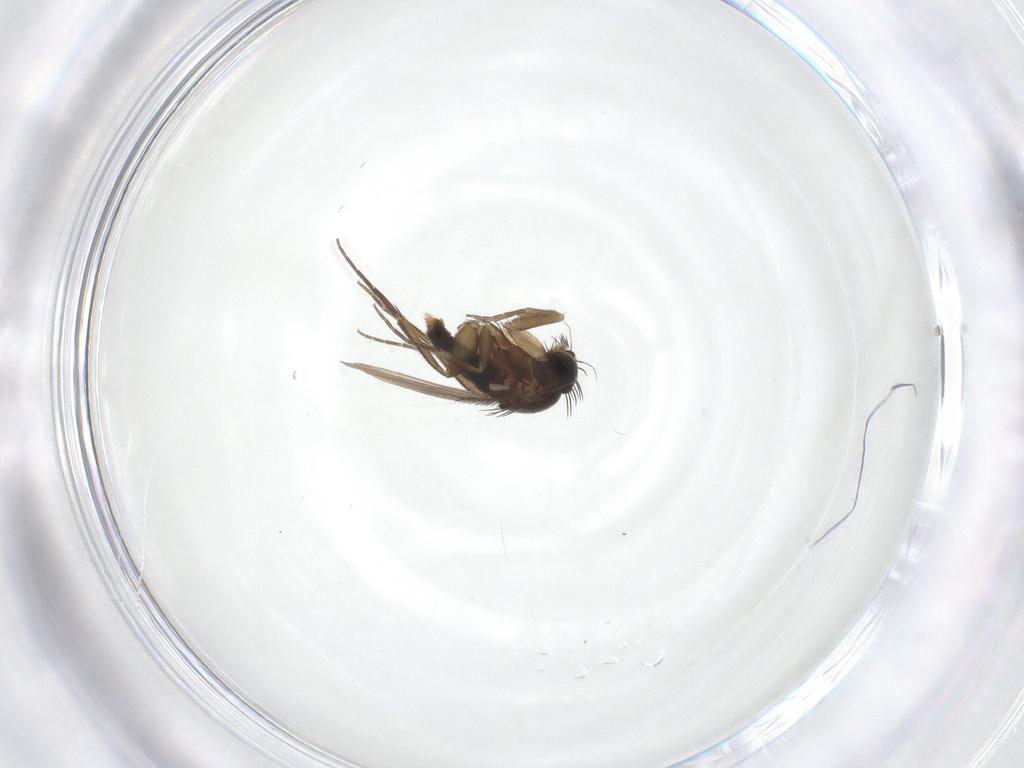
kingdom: Animalia
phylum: Arthropoda
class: Insecta
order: Diptera
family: Phoridae
